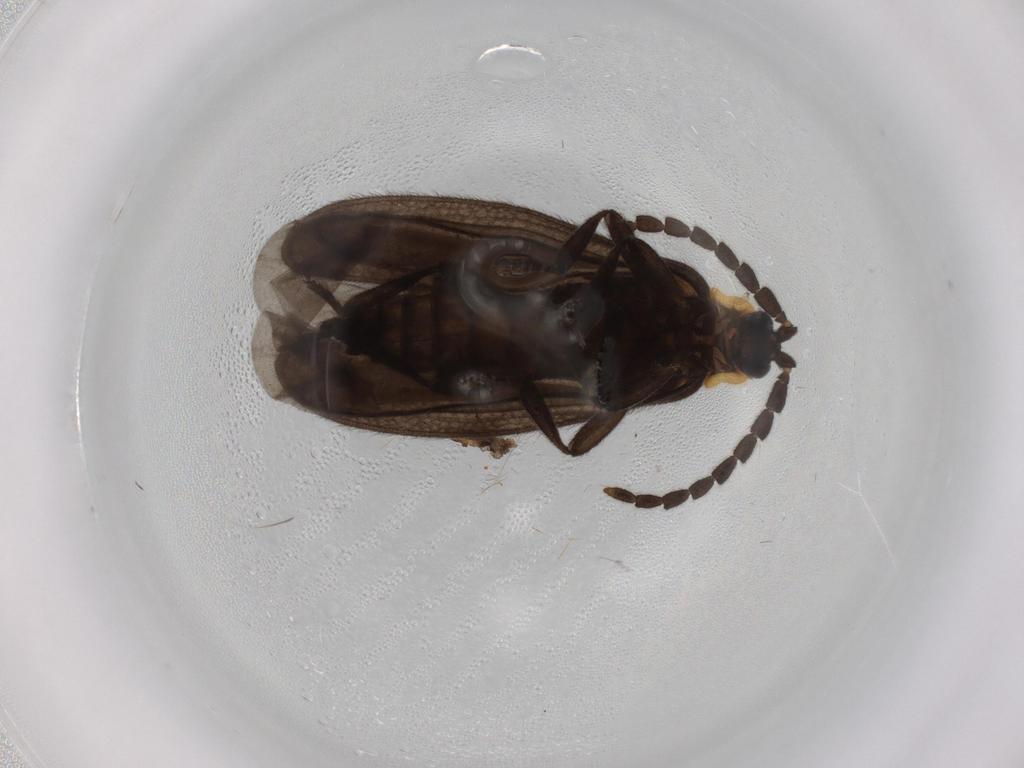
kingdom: Animalia
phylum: Arthropoda
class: Insecta
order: Coleoptera
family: Lycidae
